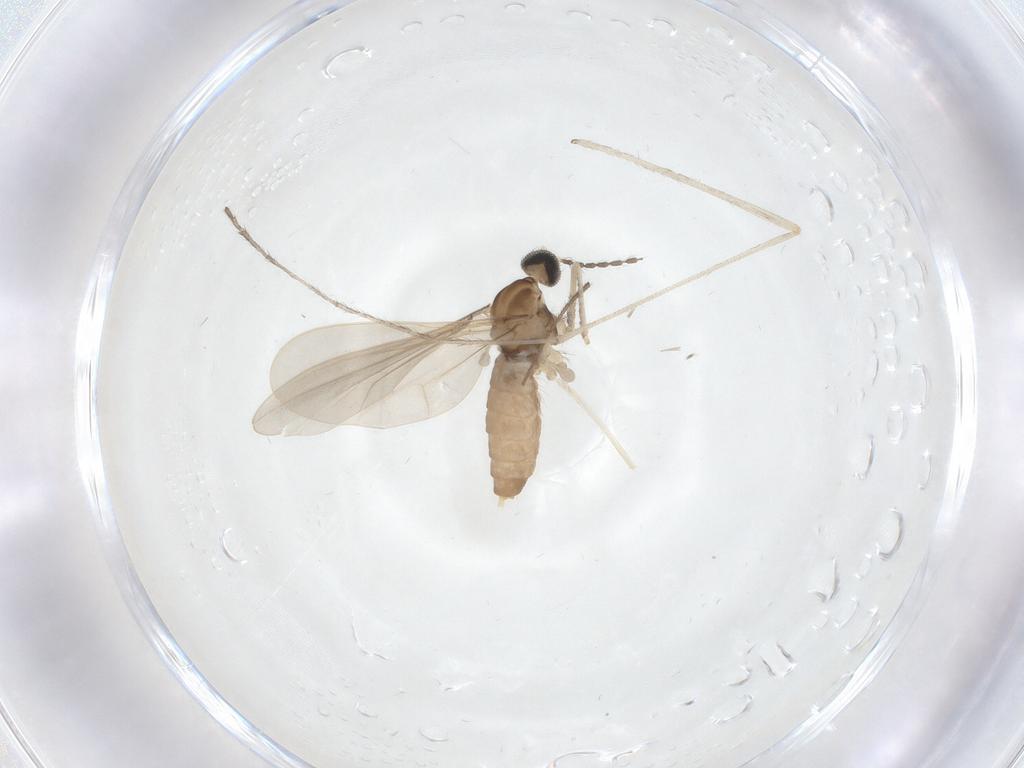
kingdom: Animalia
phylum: Arthropoda
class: Insecta
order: Diptera
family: Limoniidae
